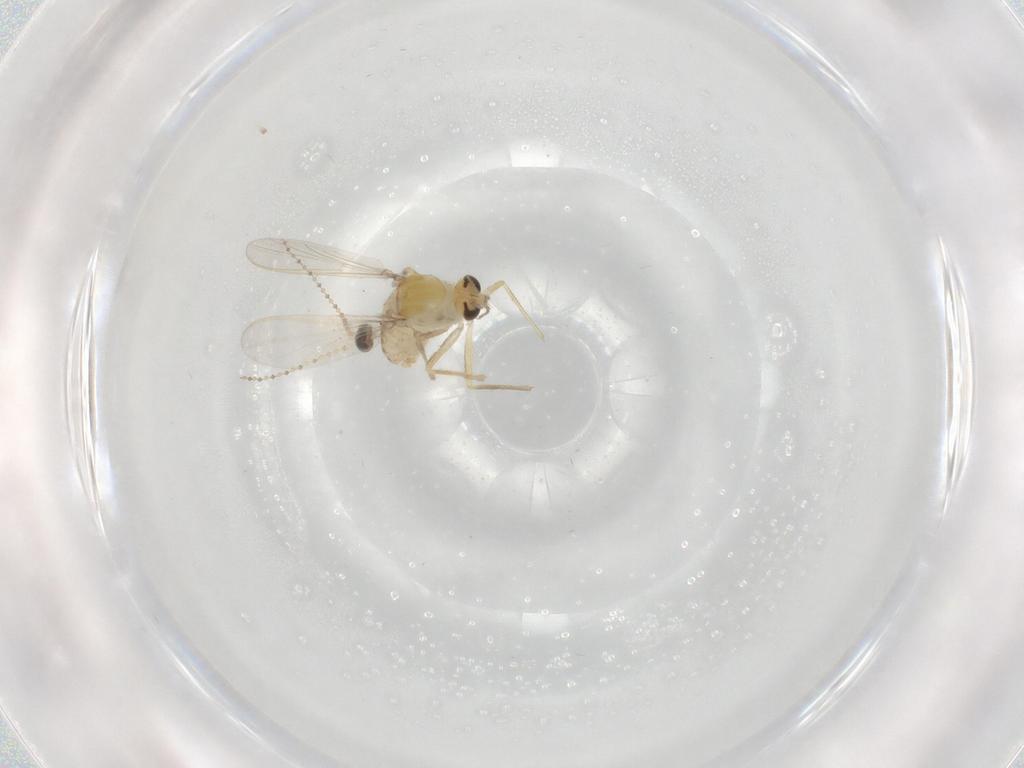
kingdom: Animalia
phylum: Arthropoda
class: Insecta
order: Diptera
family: Chironomidae
